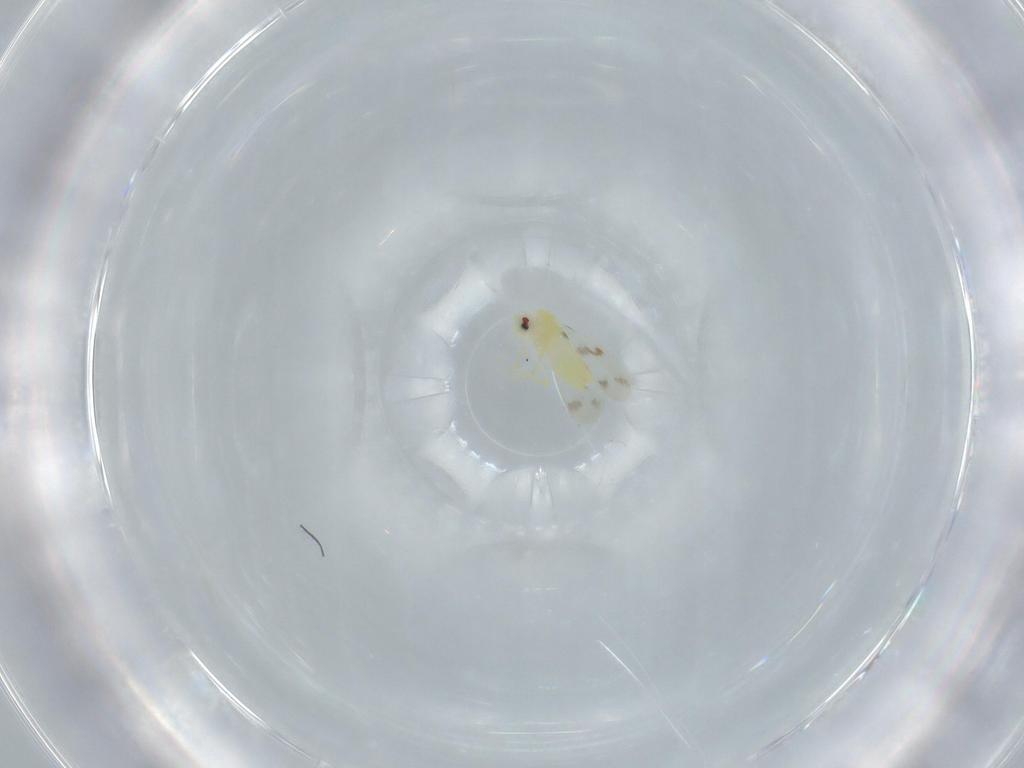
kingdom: Animalia
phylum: Arthropoda
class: Insecta
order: Hemiptera
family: Aleyrodidae
